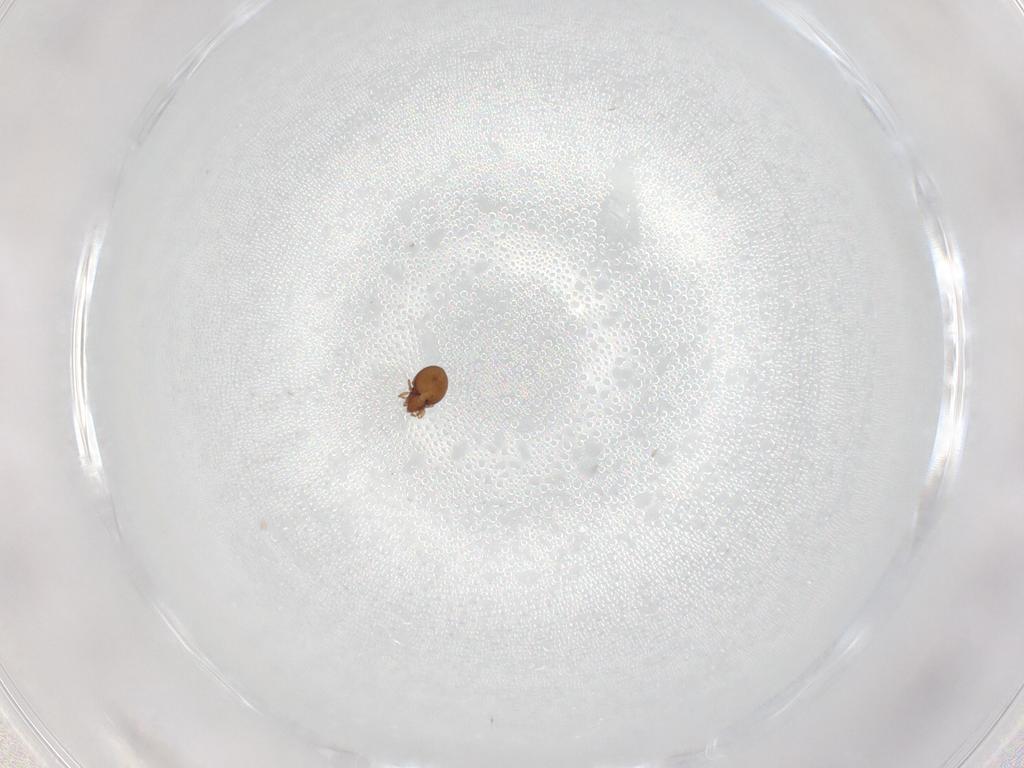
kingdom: Animalia
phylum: Arthropoda
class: Arachnida
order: Sarcoptiformes
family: Oribatulidae
